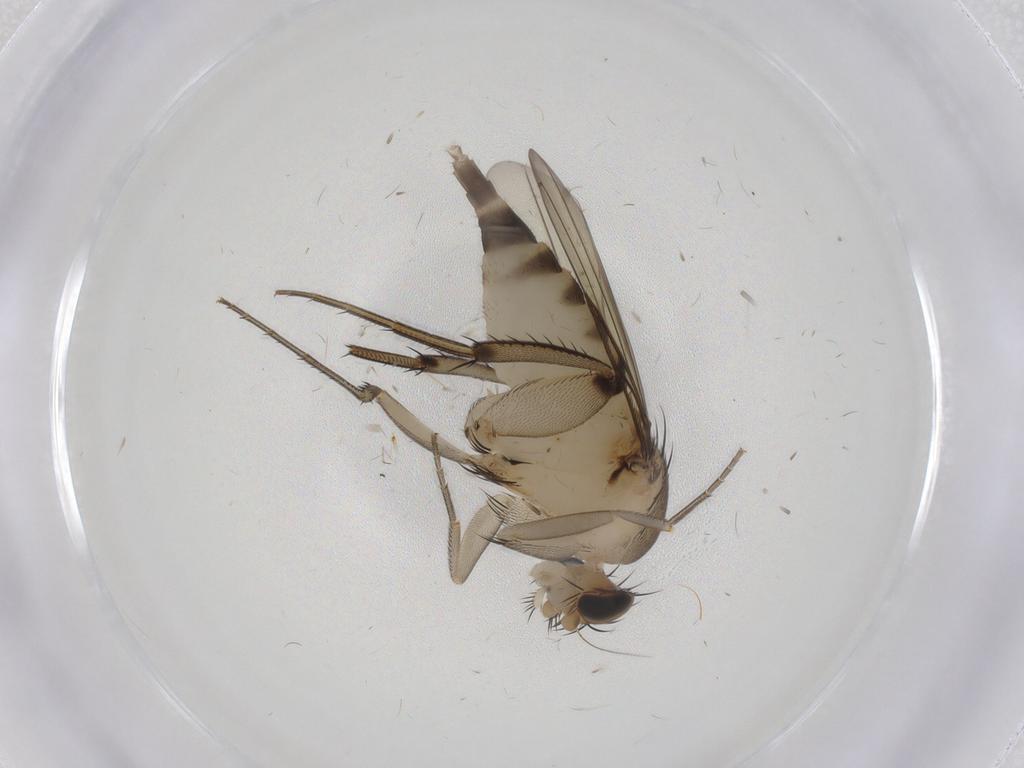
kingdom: Animalia
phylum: Arthropoda
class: Insecta
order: Diptera
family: Phoridae
